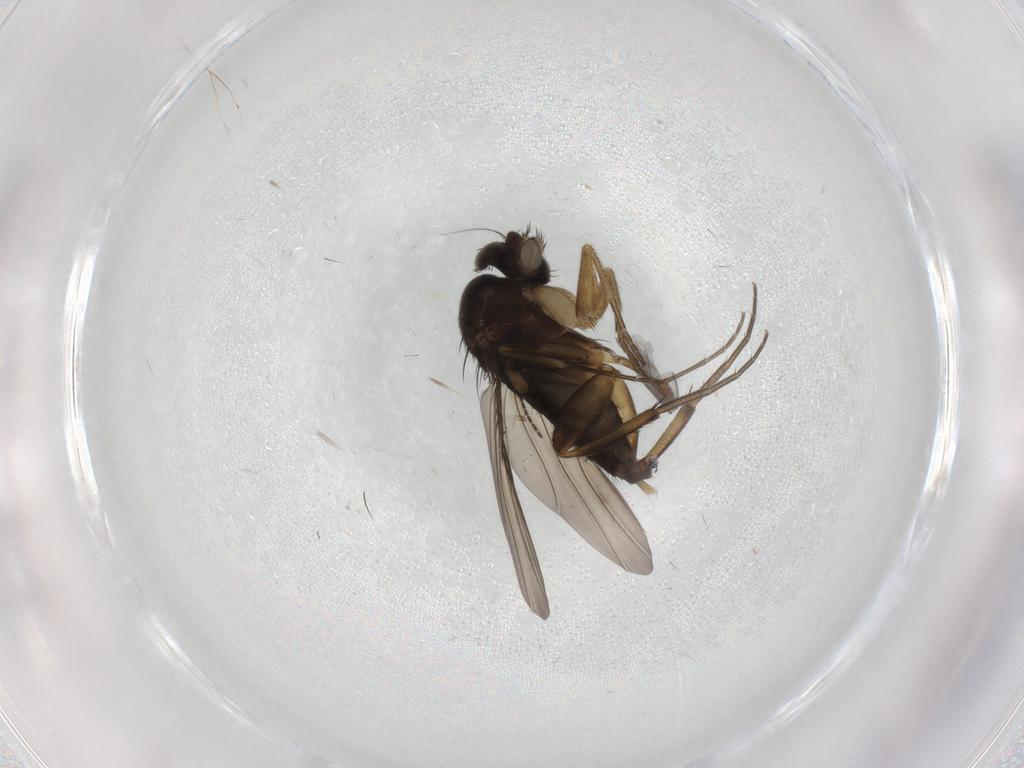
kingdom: Animalia
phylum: Arthropoda
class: Insecta
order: Diptera
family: Phoridae
